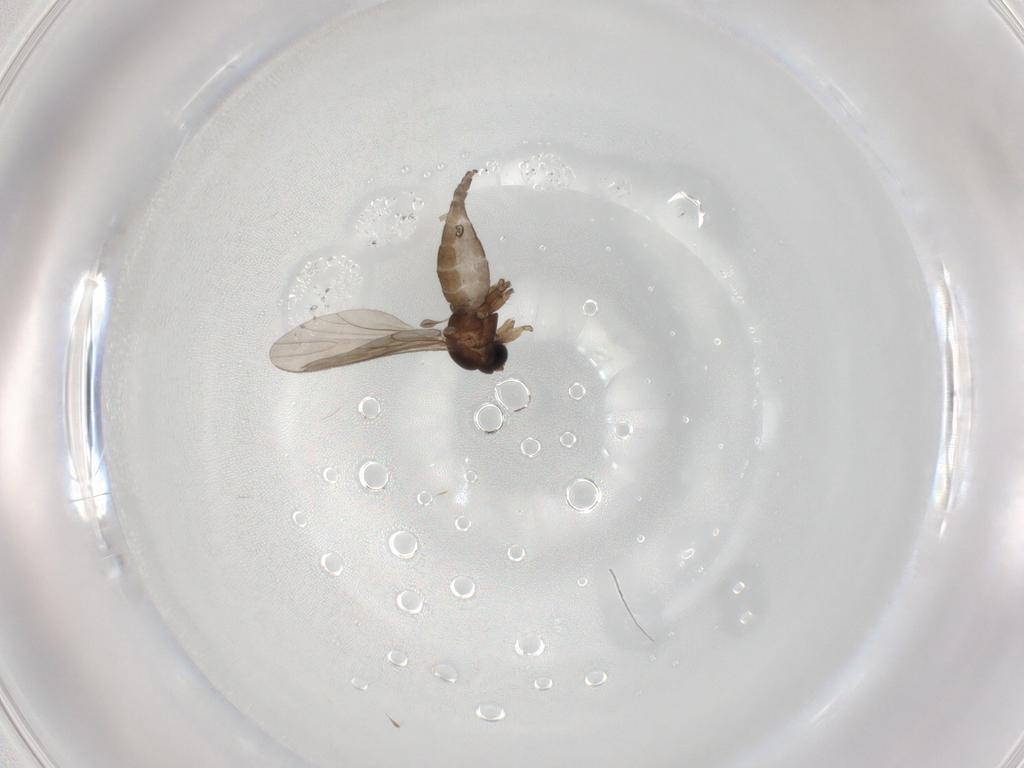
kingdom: Animalia
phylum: Arthropoda
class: Insecta
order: Diptera
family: Sciaridae
